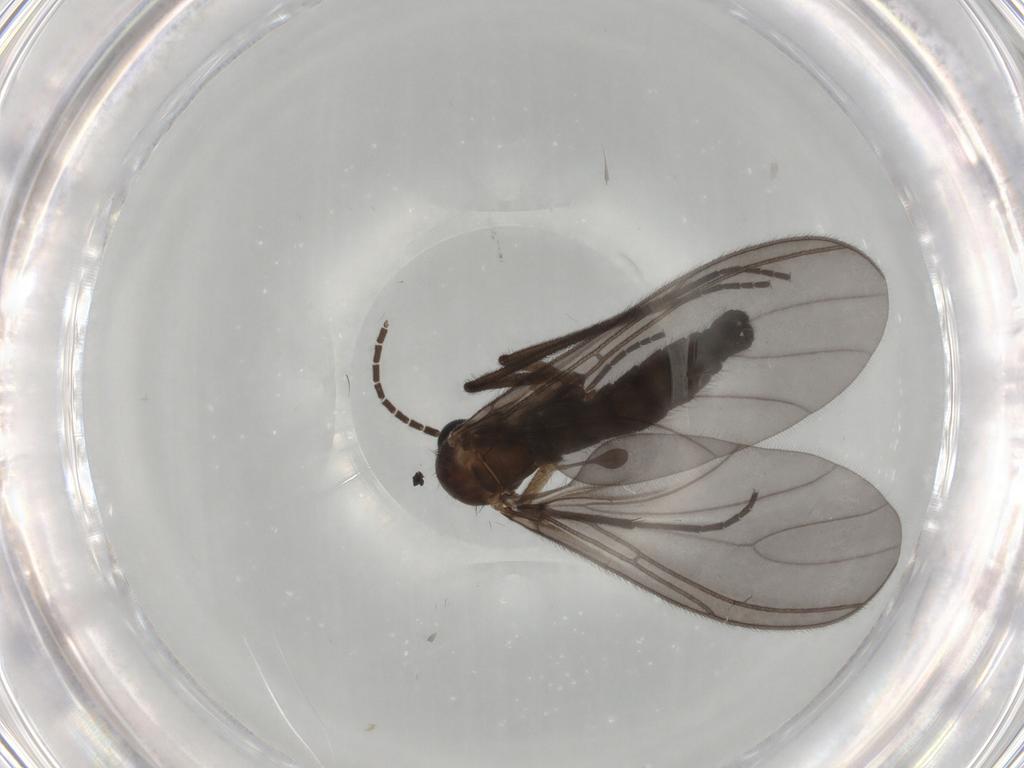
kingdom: Animalia
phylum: Arthropoda
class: Insecta
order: Diptera
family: Sciaridae
